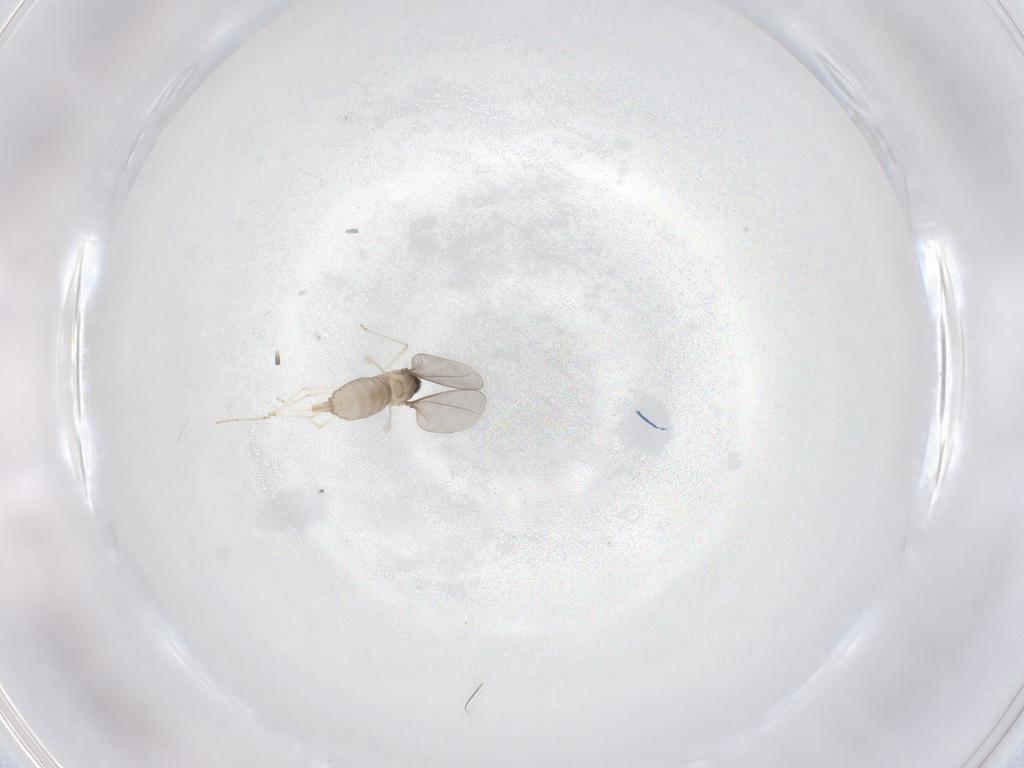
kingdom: Animalia
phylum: Arthropoda
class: Insecta
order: Diptera
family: Cecidomyiidae
